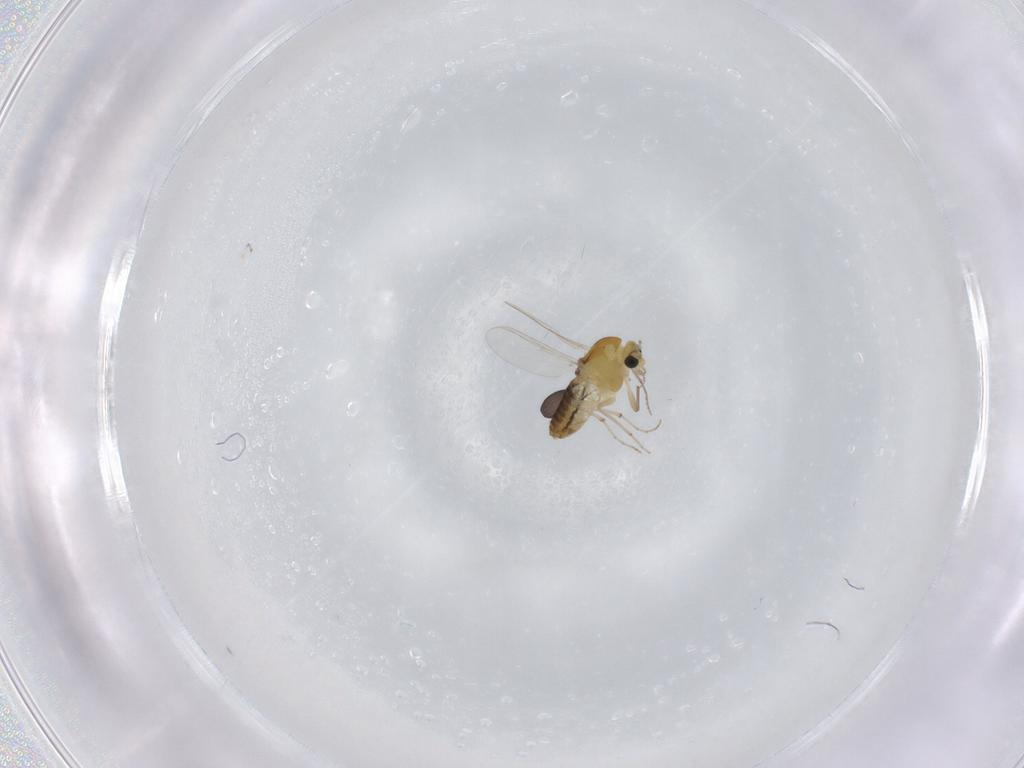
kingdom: Animalia
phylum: Arthropoda
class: Insecta
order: Diptera
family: Chironomidae
